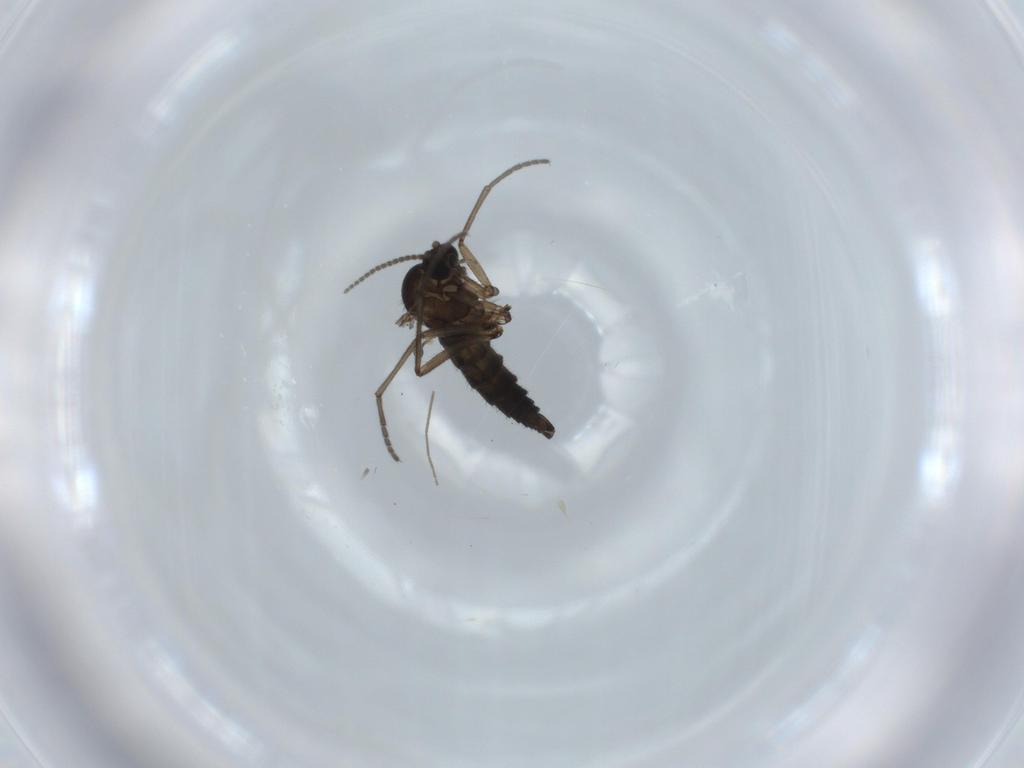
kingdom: Animalia
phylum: Arthropoda
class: Insecta
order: Diptera
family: Sciaridae
